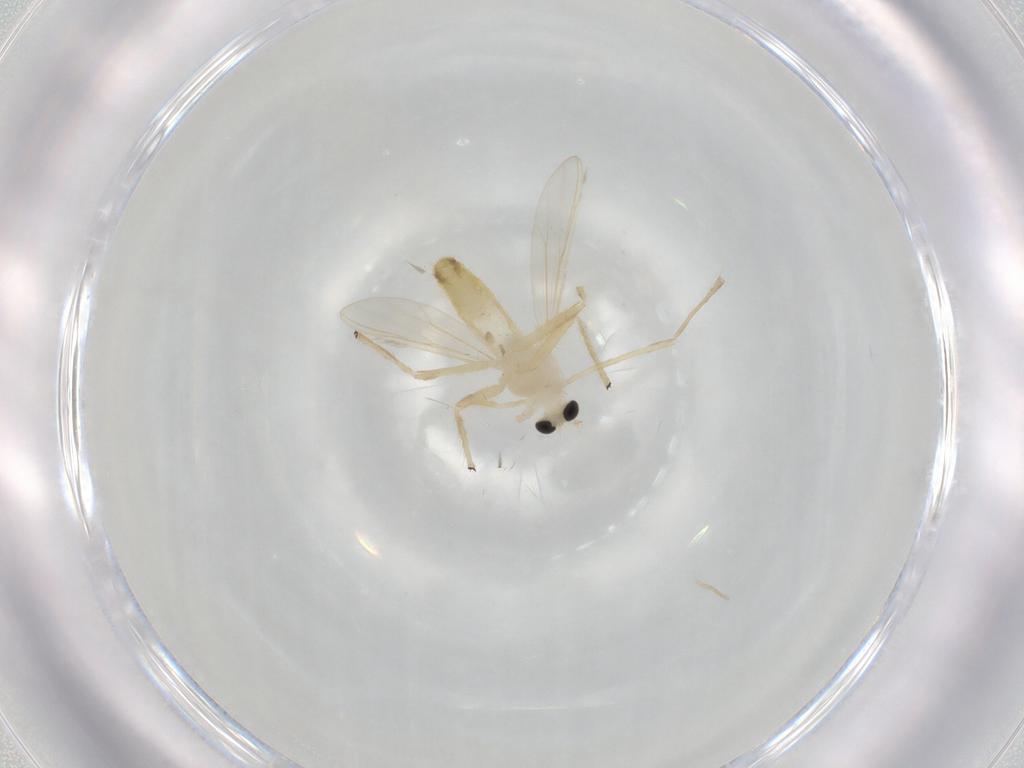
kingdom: Animalia
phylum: Arthropoda
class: Insecta
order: Diptera
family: Chironomidae
